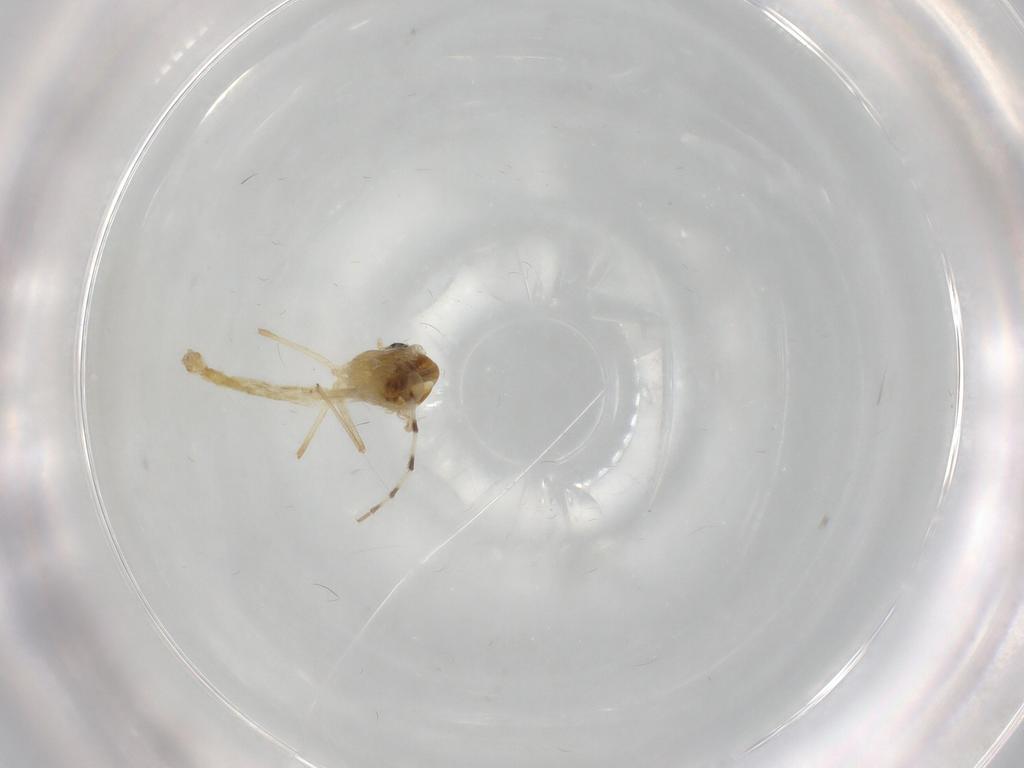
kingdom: Animalia
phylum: Arthropoda
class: Insecta
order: Diptera
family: Chironomidae
